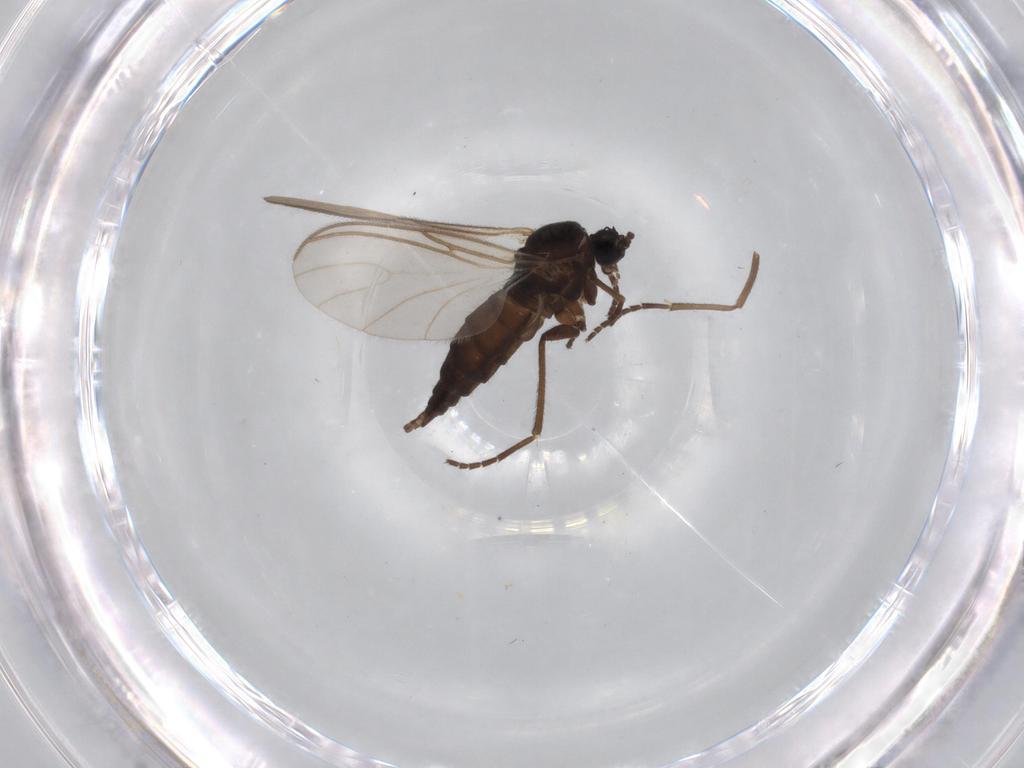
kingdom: Animalia
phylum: Arthropoda
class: Insecta
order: Diptera
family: Sciaridae
